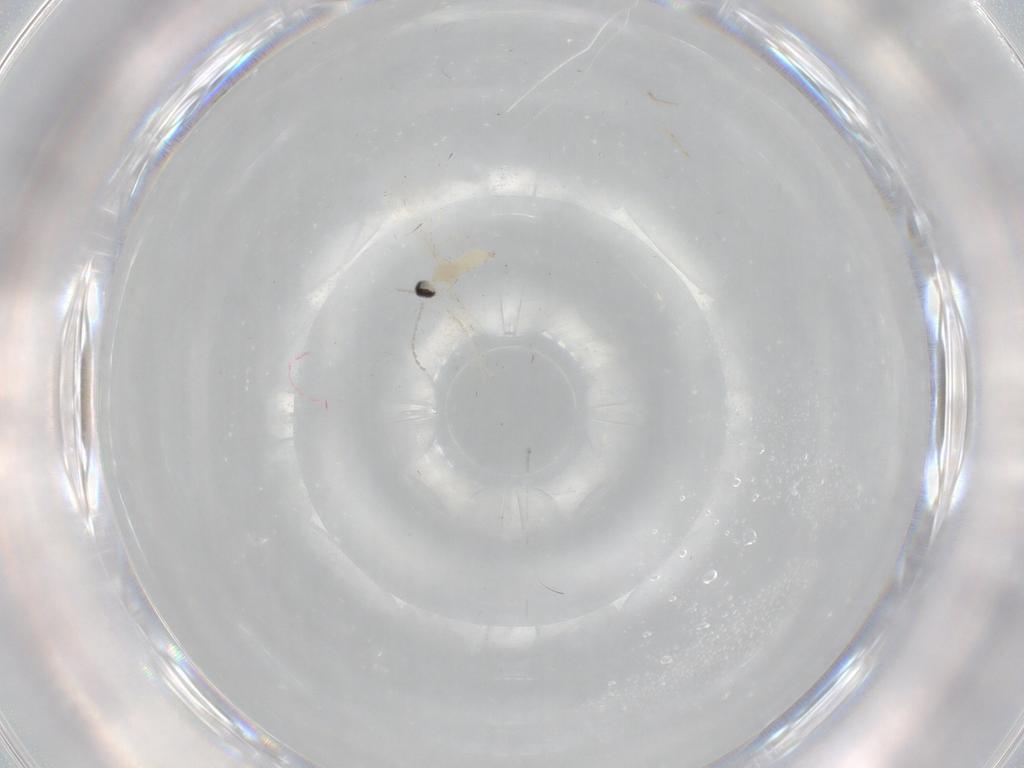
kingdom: Animalia
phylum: Arthropoda
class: Insecta
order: Diptera
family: Cecidomyiidae
